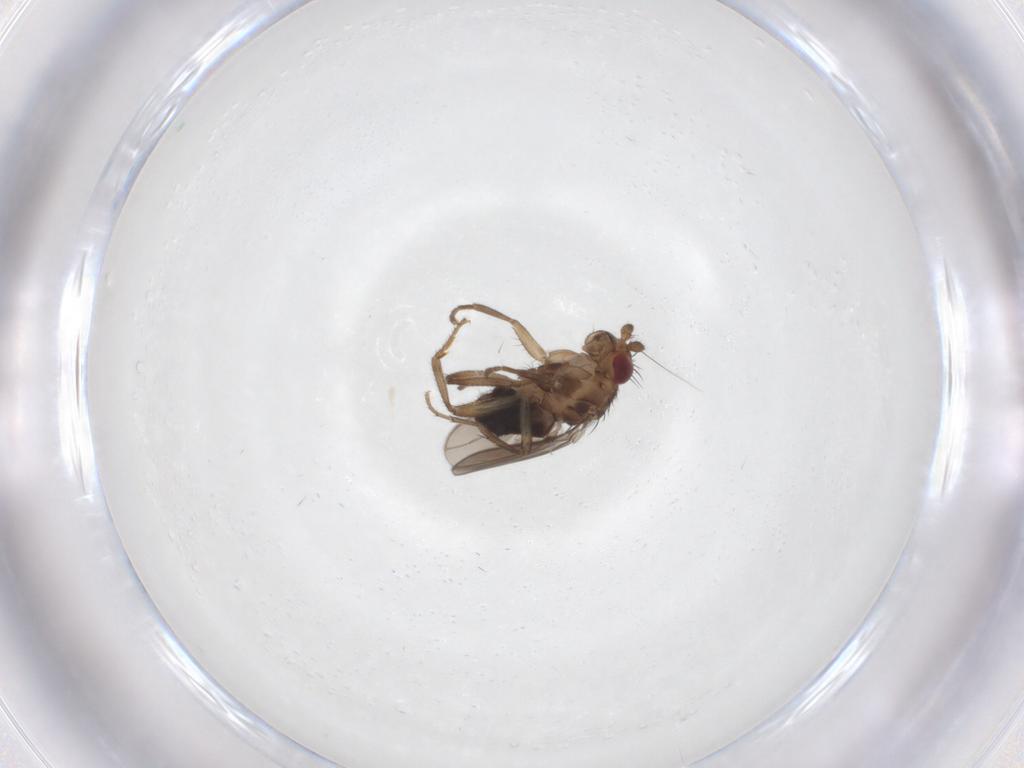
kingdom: Animalia
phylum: Arthropoda
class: Insecta
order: Diptera
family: Sphaeroceridae
